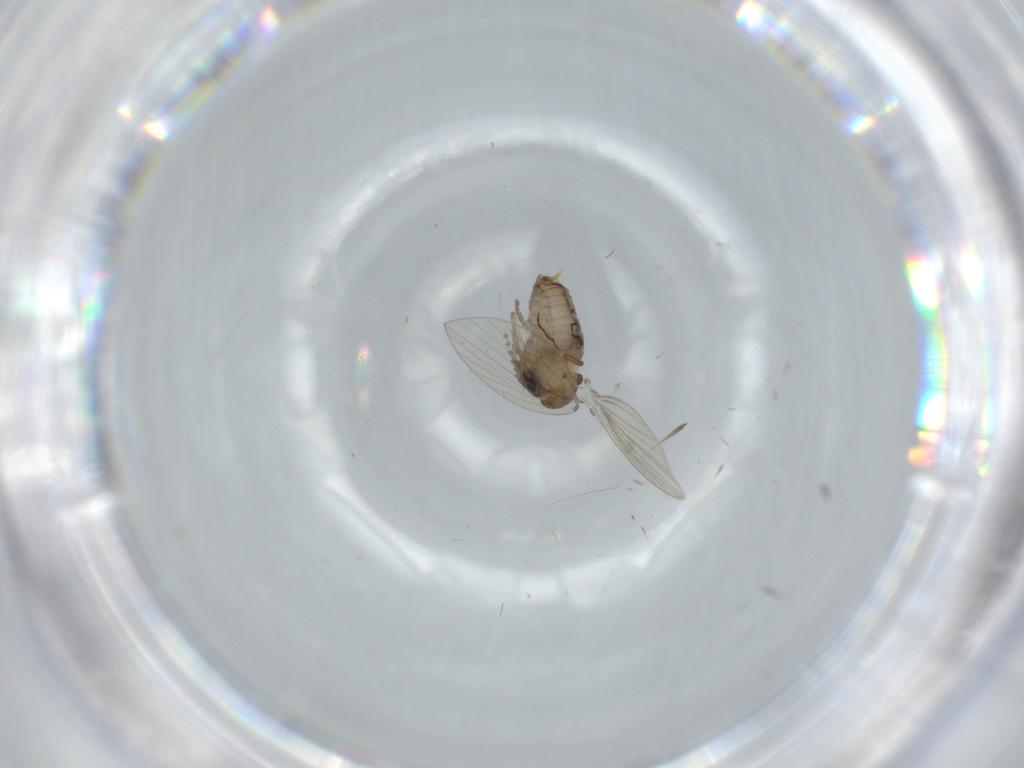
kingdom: Animalia
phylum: Arthropoda
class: Insecta
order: Diptera
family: Psychodidae
